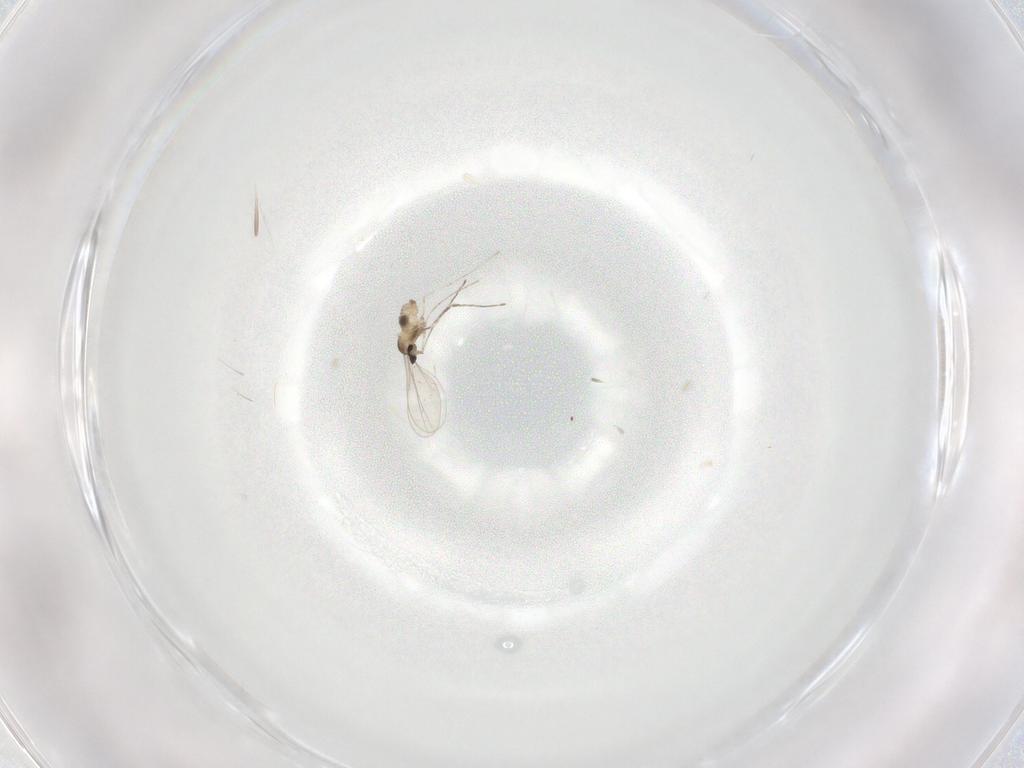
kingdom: Animalia
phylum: Arthropoda
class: Insecta
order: Diptera
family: Cecidomyiidae
